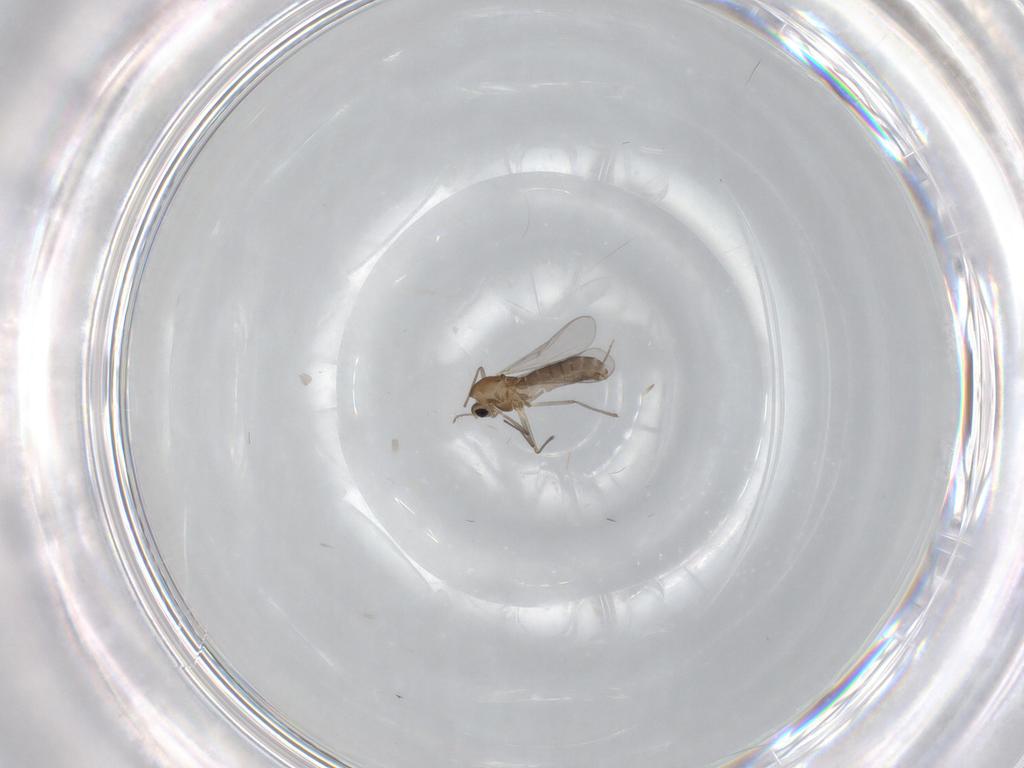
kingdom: Animalia
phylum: Arthropoda
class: Insecta
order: Diptera
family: Chironomidae
